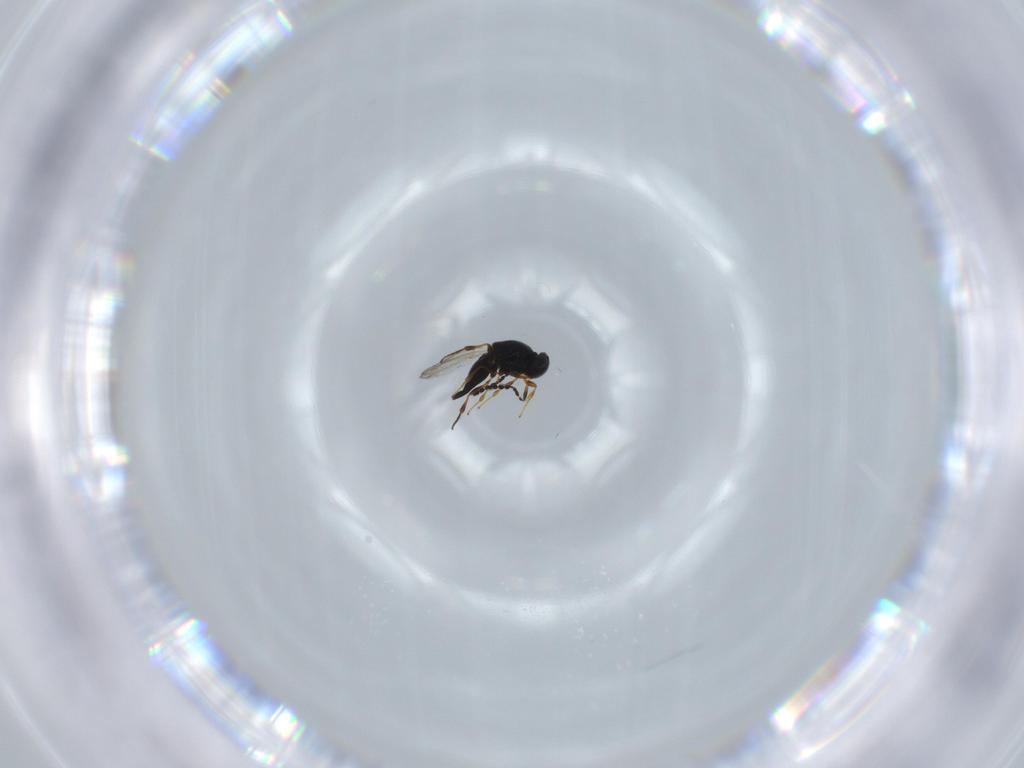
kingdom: Animalia
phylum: Arthropoda
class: Insecta
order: Hymenoptera
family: Platygastridae
